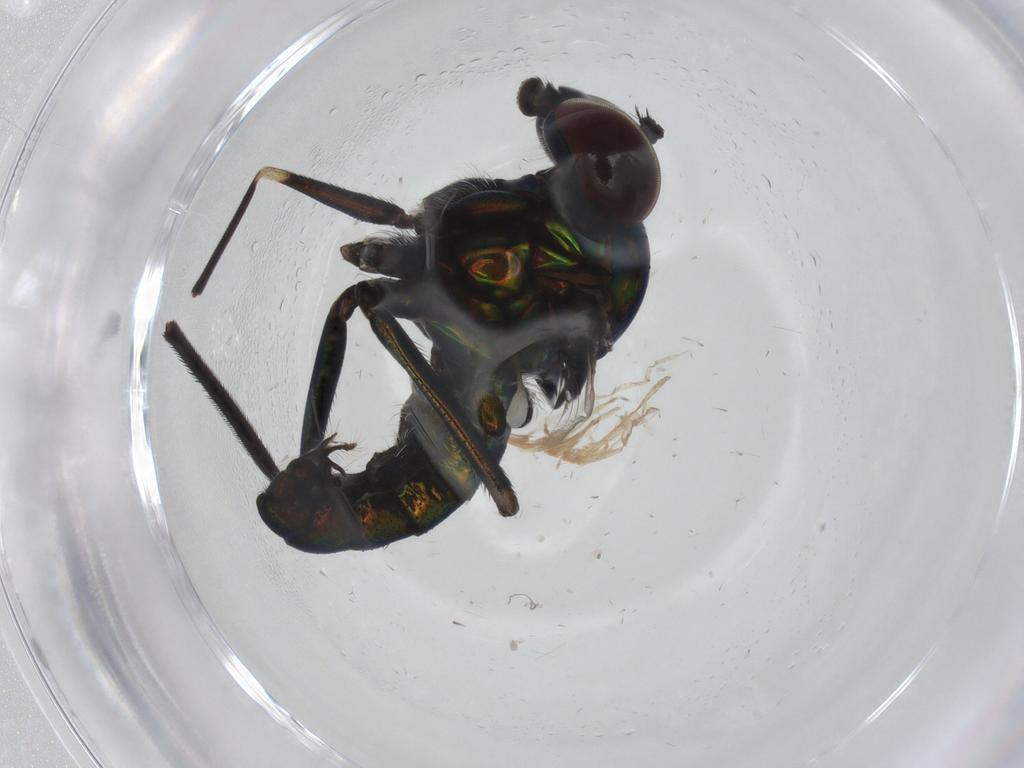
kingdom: Animalia
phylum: Arthropoda
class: Insecta
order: Diptera
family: Dolichopodidae
